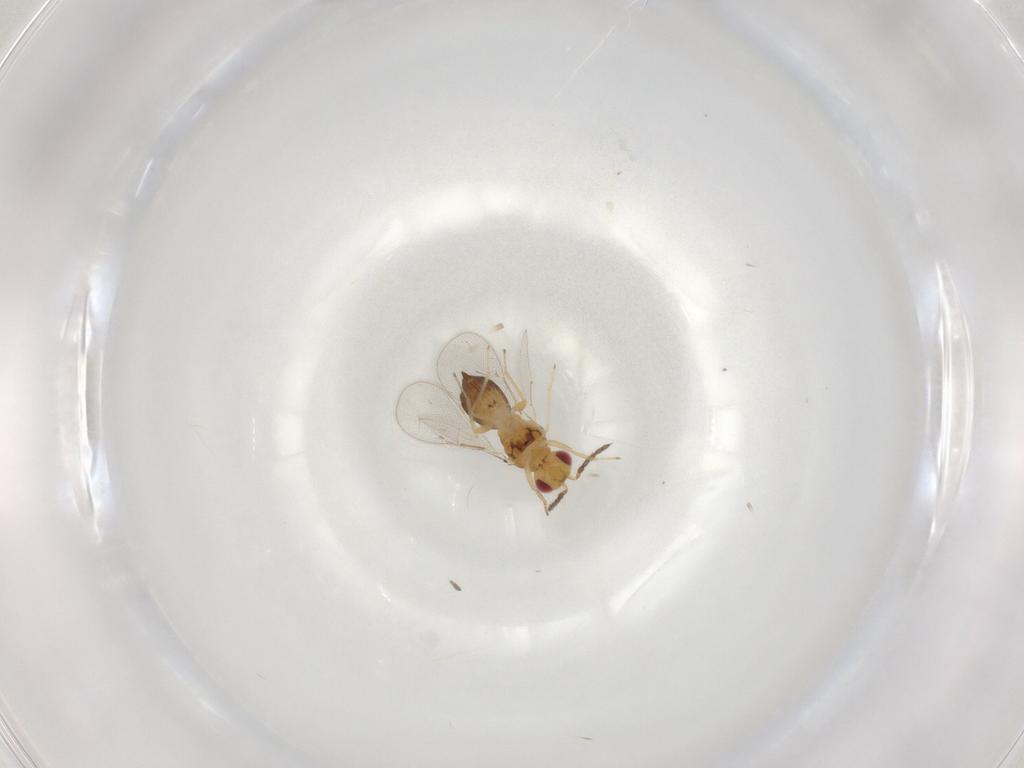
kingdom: Animalia
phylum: Arthropoda
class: Insecta
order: Hymenoptera
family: Eulophidae
